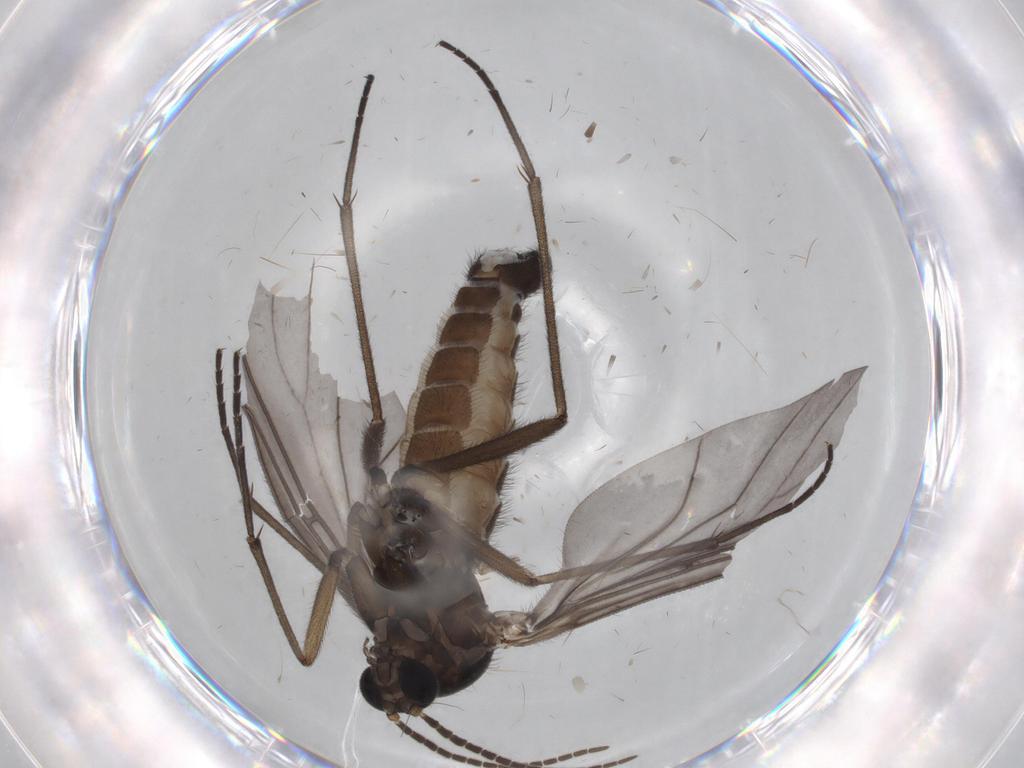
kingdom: Animalia
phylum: Arthropoda
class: Insecta
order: Diptera
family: Limoniidae
